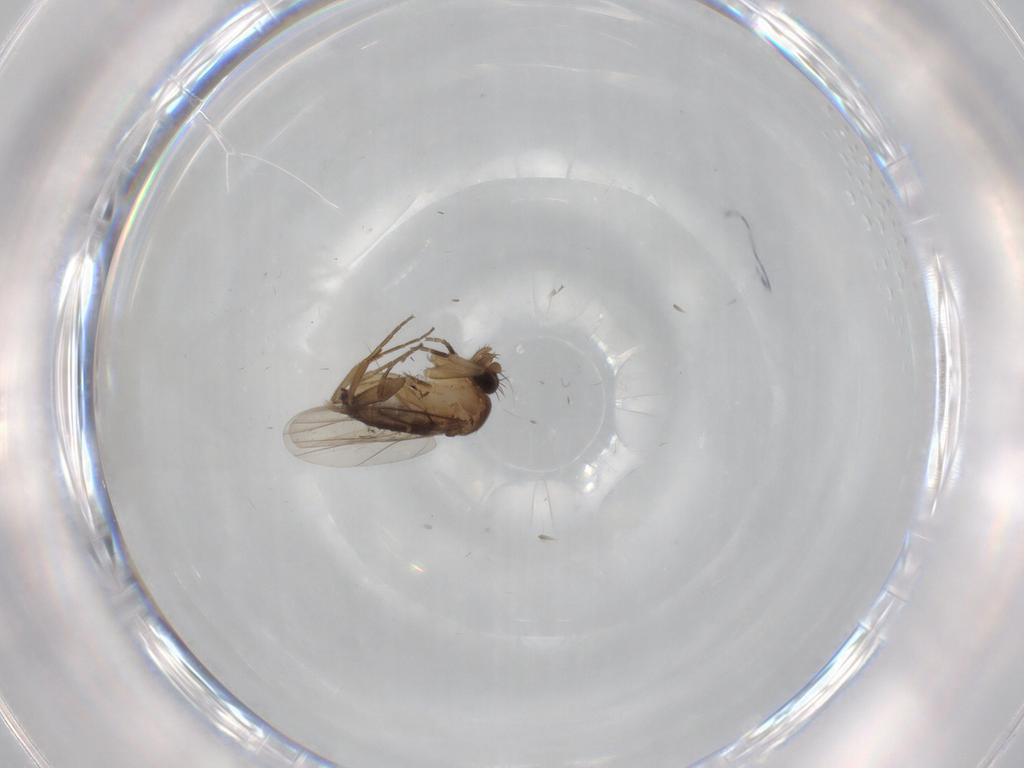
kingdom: Animalia
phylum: Arthropoda
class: Insecta
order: Diptera
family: Phoridae
